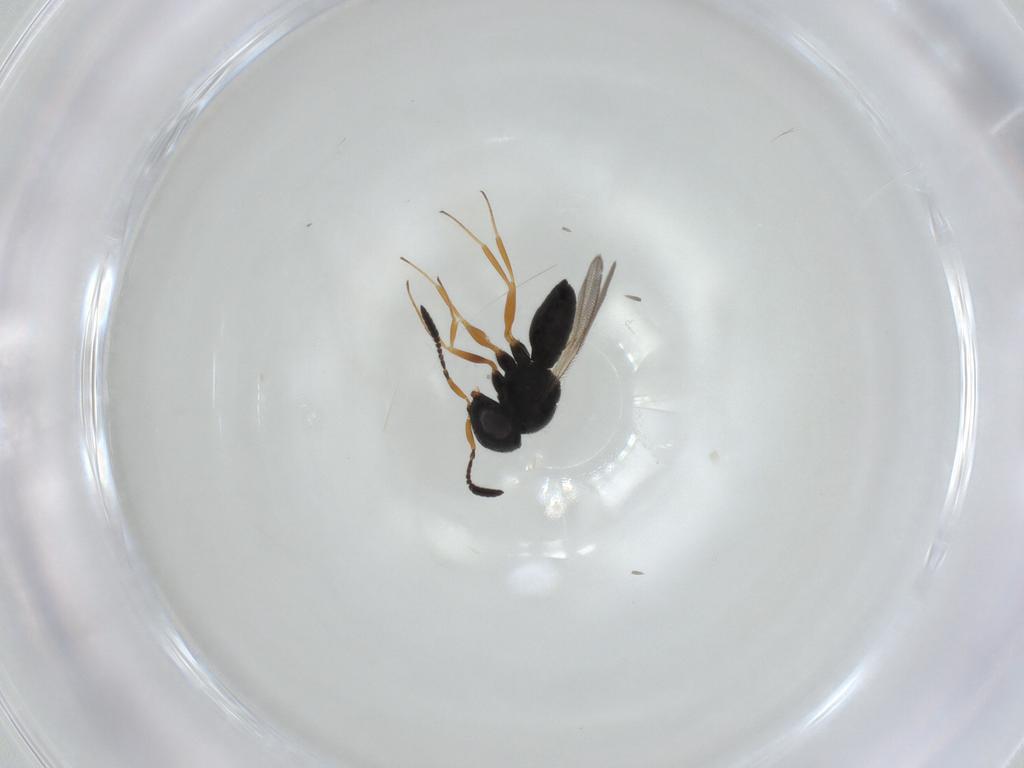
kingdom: Animalia
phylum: Arthropoda
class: Insecta
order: Hymenoptera
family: Scelionidae
